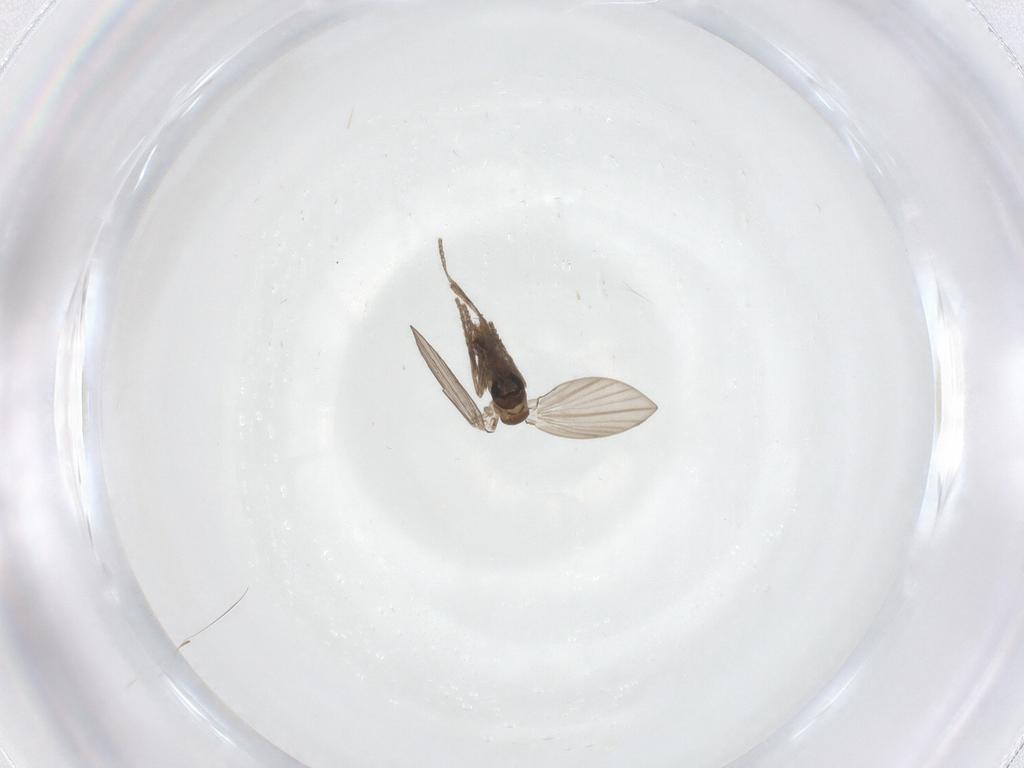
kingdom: Animalia
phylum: Arthropoda
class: Insecta
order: Diptera
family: Psychodidae
